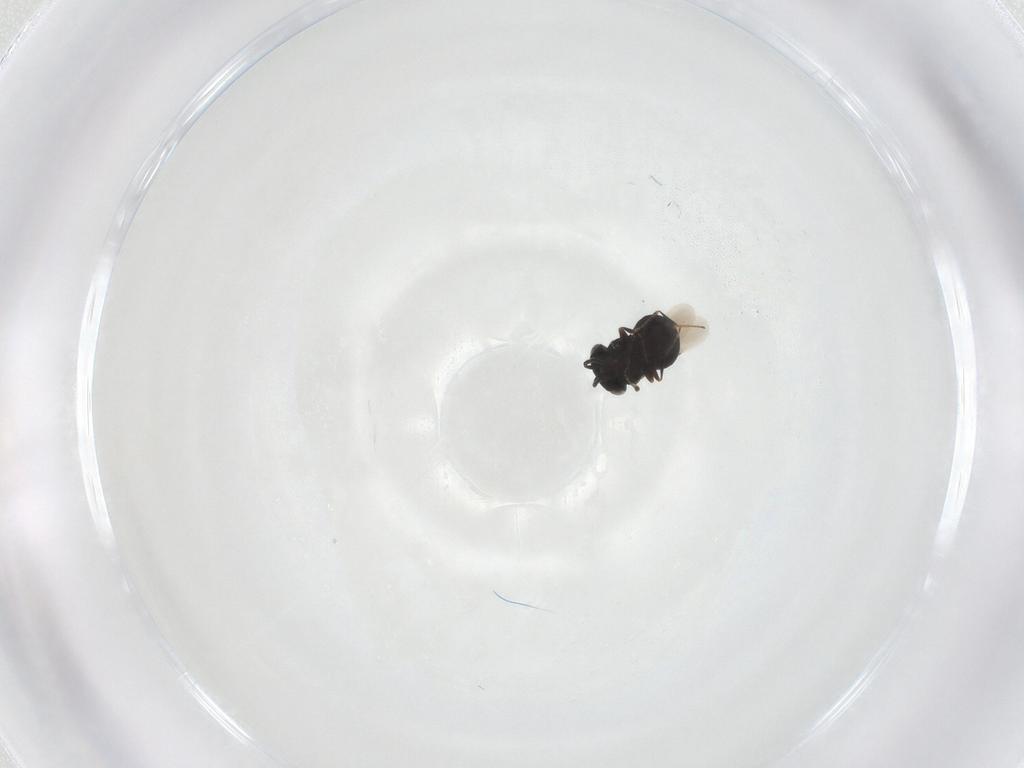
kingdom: Animalia
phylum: Arthropoda
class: Insecta
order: Hymenoptera
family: Scelionidae
